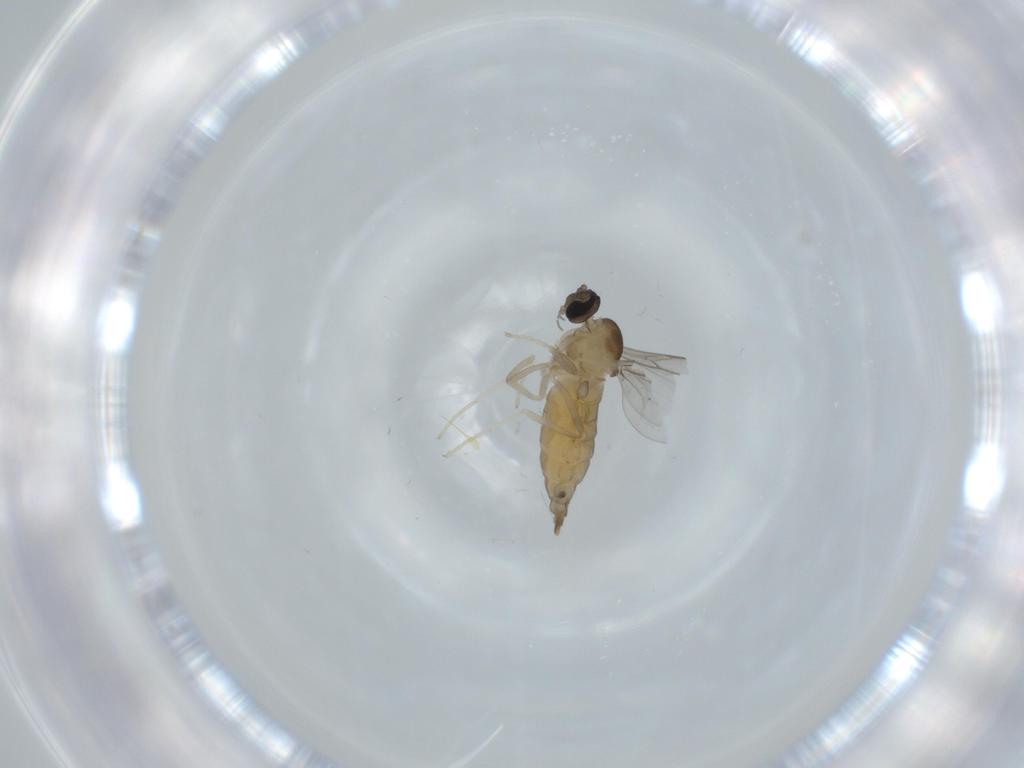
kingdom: Animalia
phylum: Arthropoda
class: Insecta
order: Diptera
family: Cecidomyiidae
